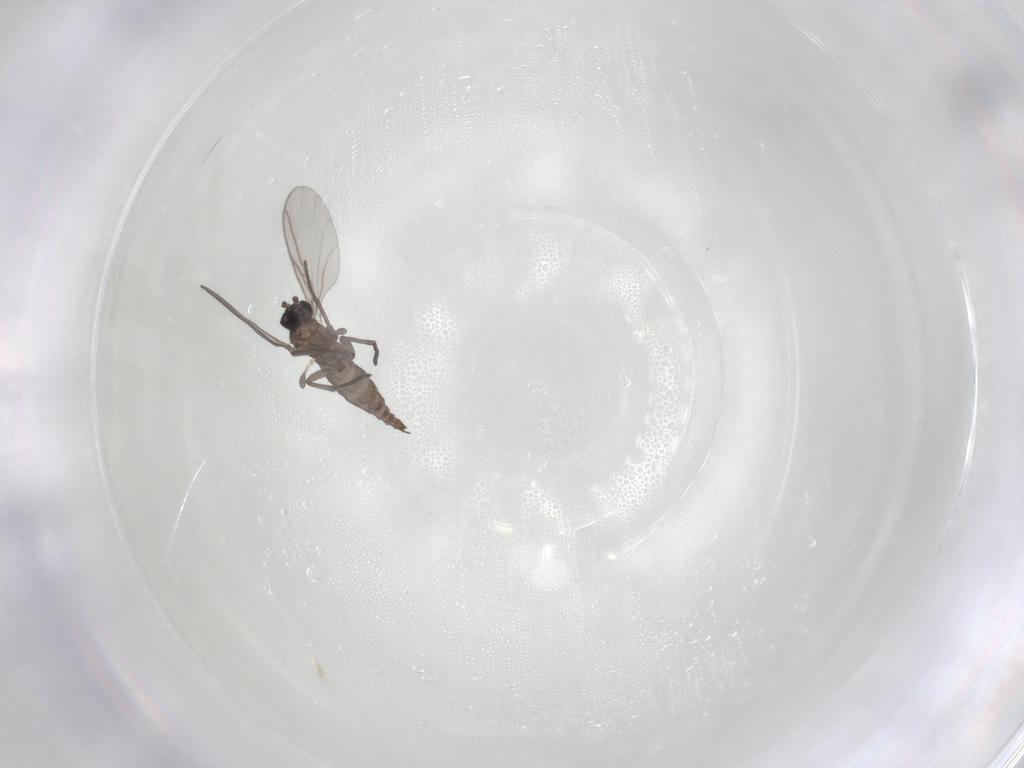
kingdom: Animalia
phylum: Arthropoda
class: Insecta
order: Diptera
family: Sciaridae
